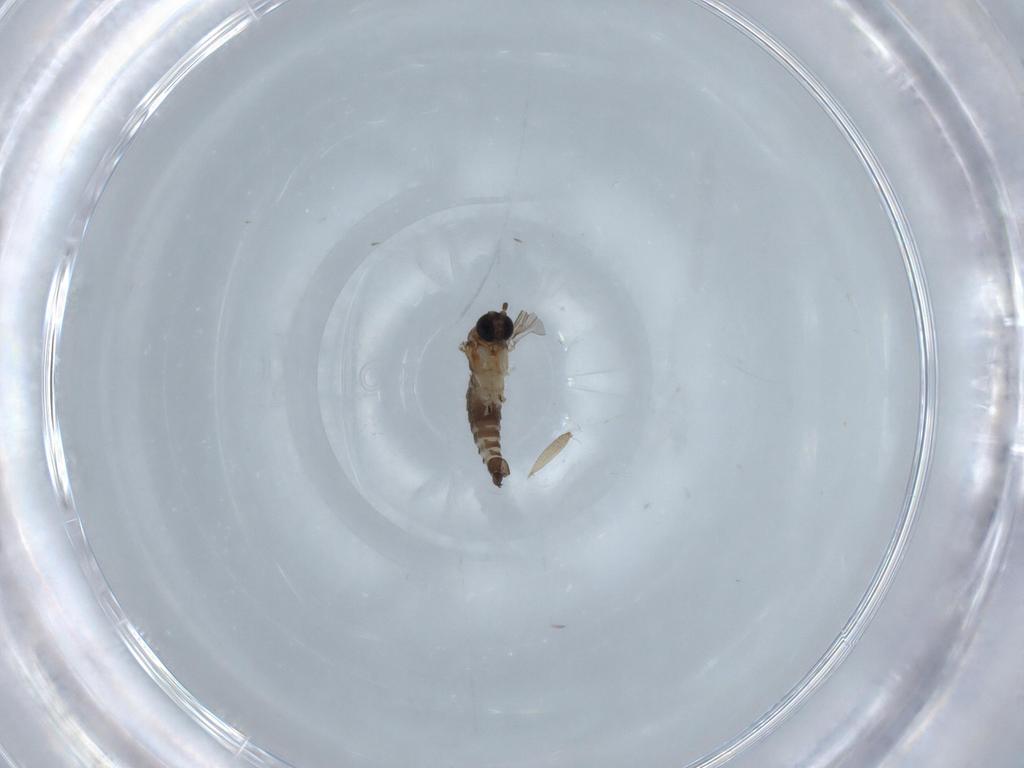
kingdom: Animalia
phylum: Arthropoda
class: Insecta
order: Diptera
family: Sciaridae
